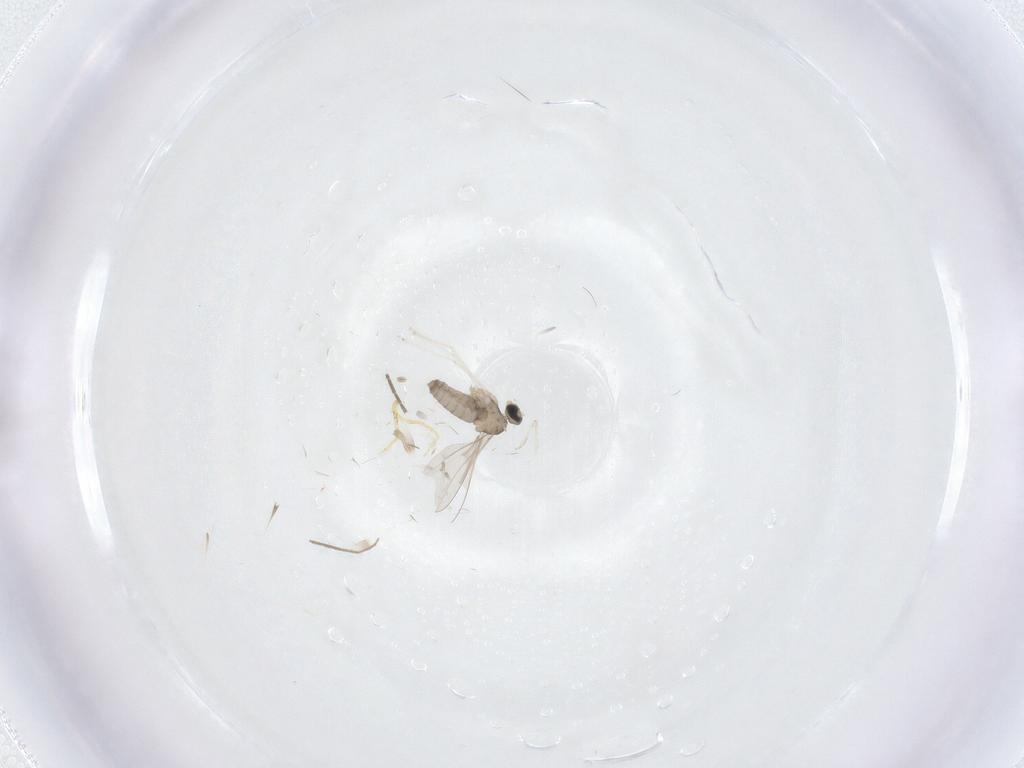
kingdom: Animalia
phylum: Arthropoda
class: Insecta
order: Diptera
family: Cecidomyiidae
